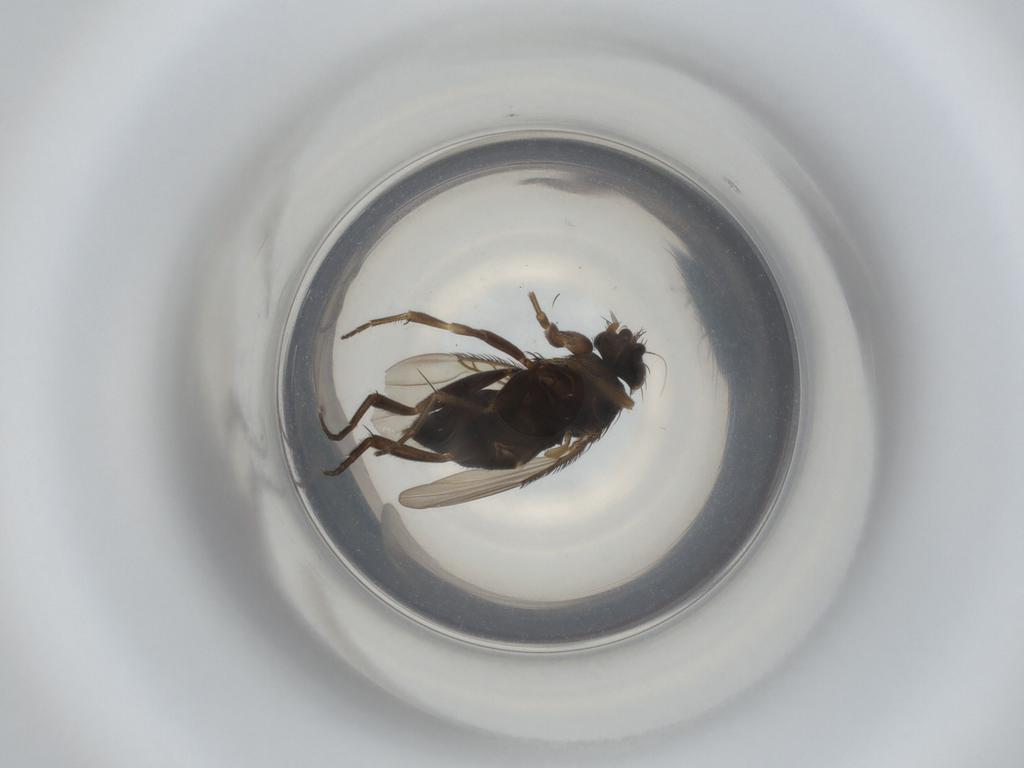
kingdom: Animalia
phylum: Arthropoda
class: Insecta
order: Diptera
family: Phoridae
